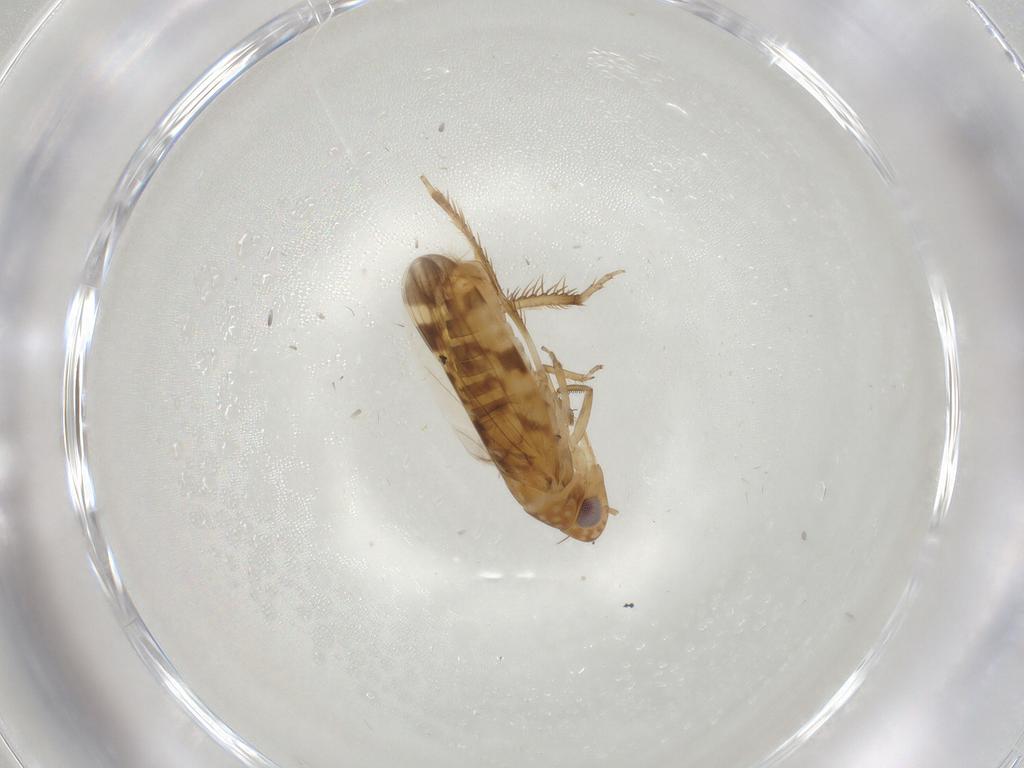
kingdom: Animalia
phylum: Arthropoda
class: Insecta
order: Hemiptera
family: Cicadellidae
